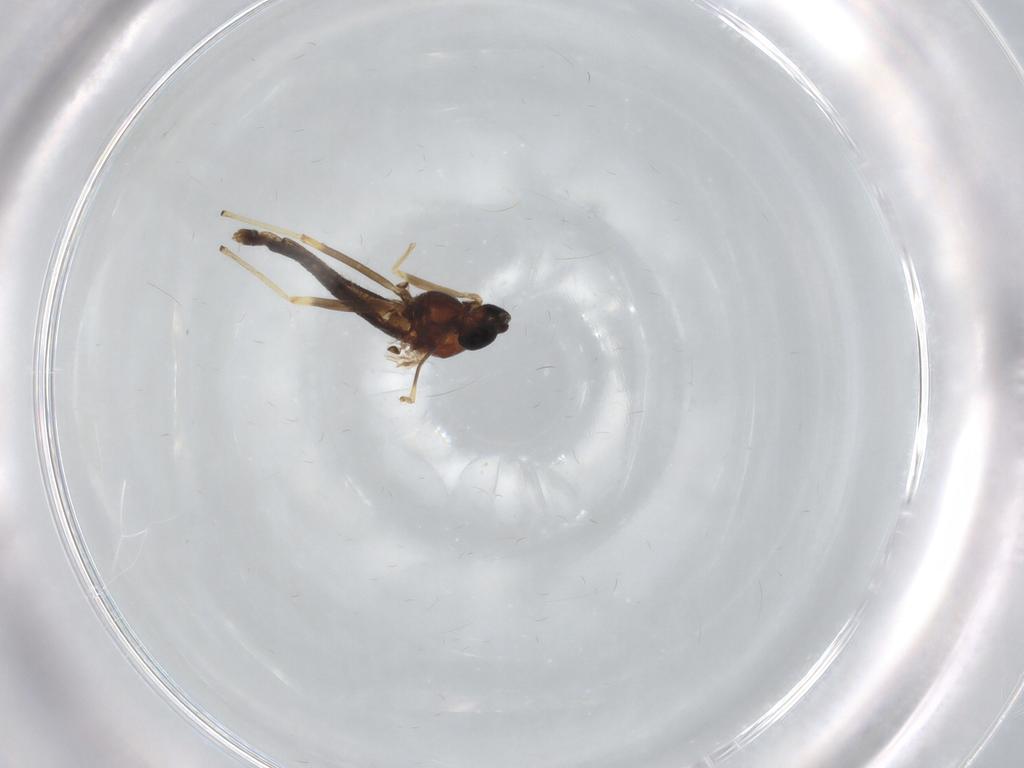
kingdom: Animalia
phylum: Arthropoda
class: Insecta
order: Diptera
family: Chironomidae
